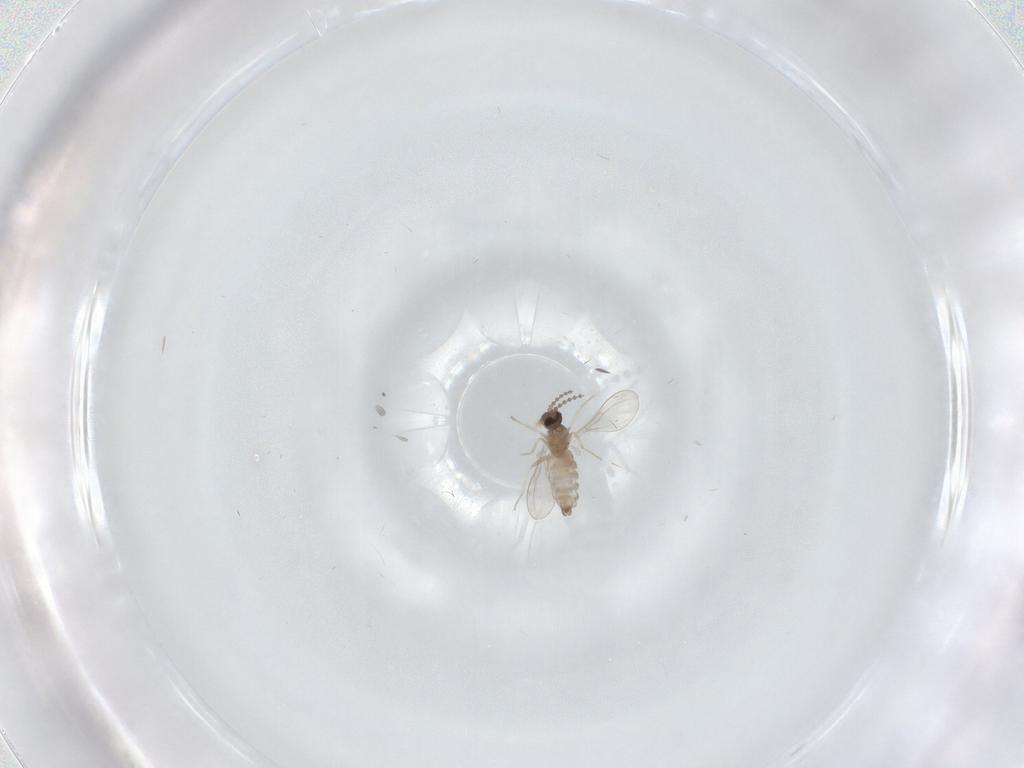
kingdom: Animalia
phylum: Arthropoda
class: Insecta
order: Diptera
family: Cecidomyiidae
